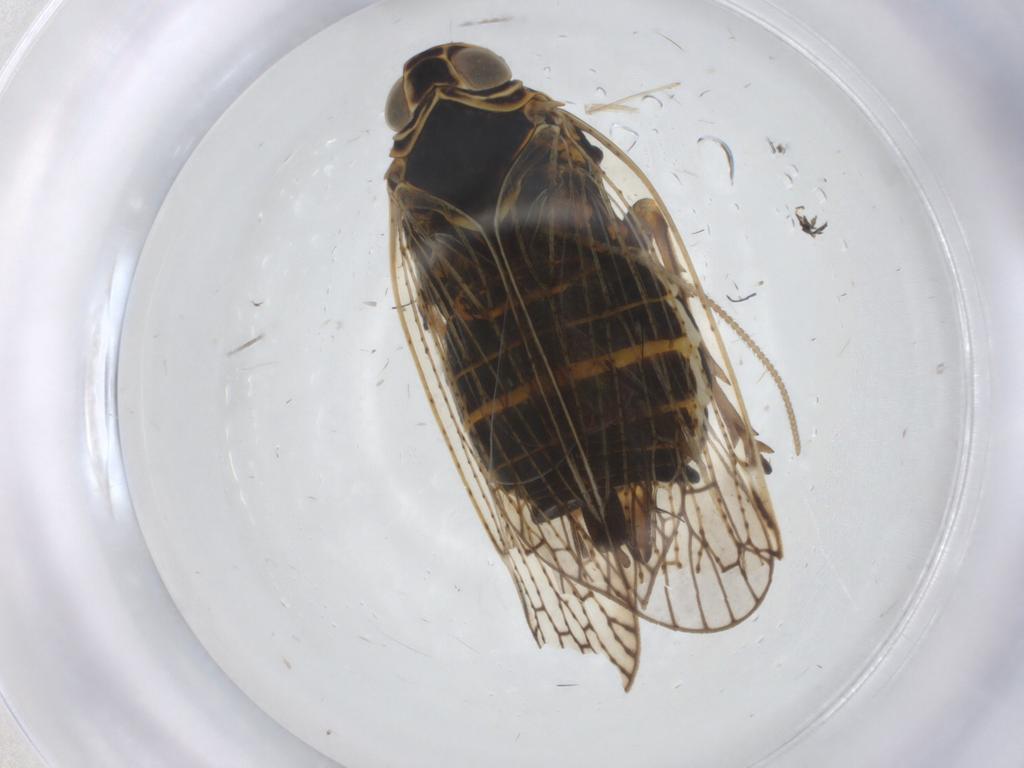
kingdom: Animalia
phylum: Arthropoda
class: Insecta
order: Hemiptera
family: Cixiidae
